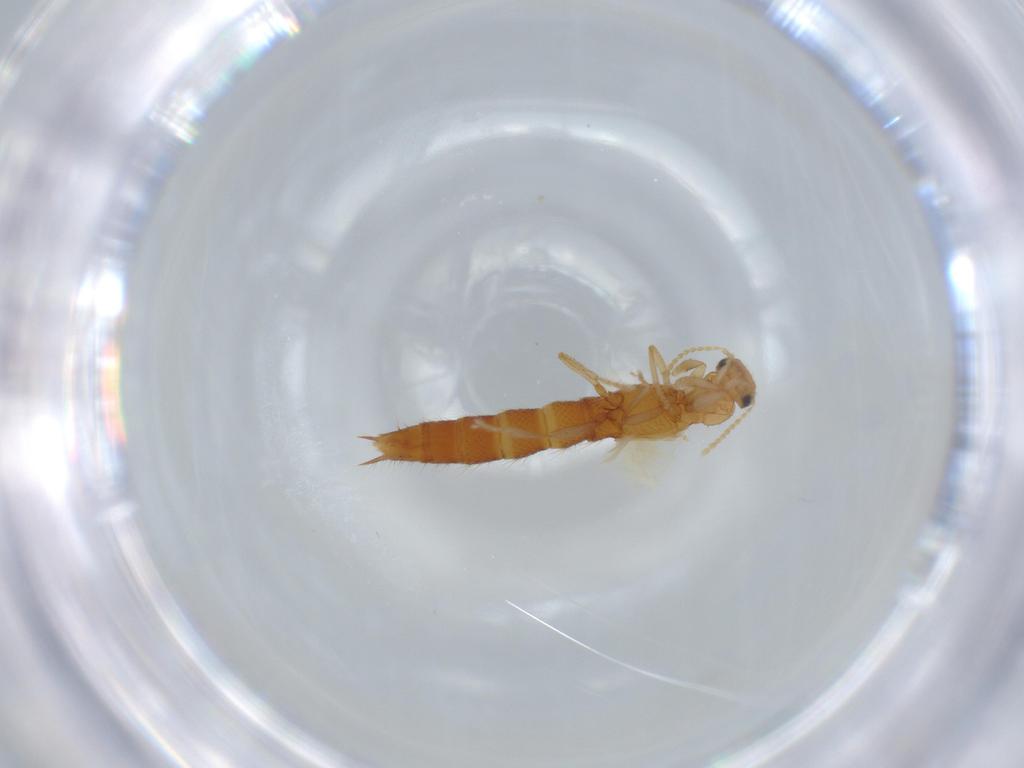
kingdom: Animalia
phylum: Arthropoda
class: Insecta
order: Coleoptera
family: Staphylinidae
